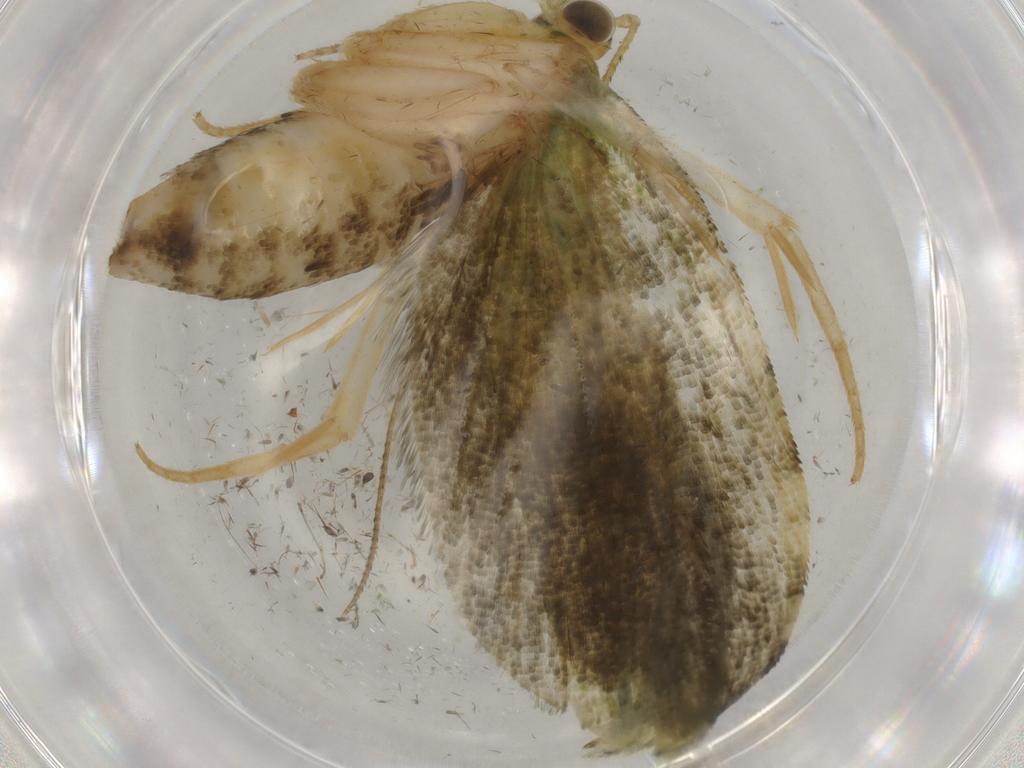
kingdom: Animalia
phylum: Arthropoda
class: Insecta
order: Lepidoptera
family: Tortricidae
